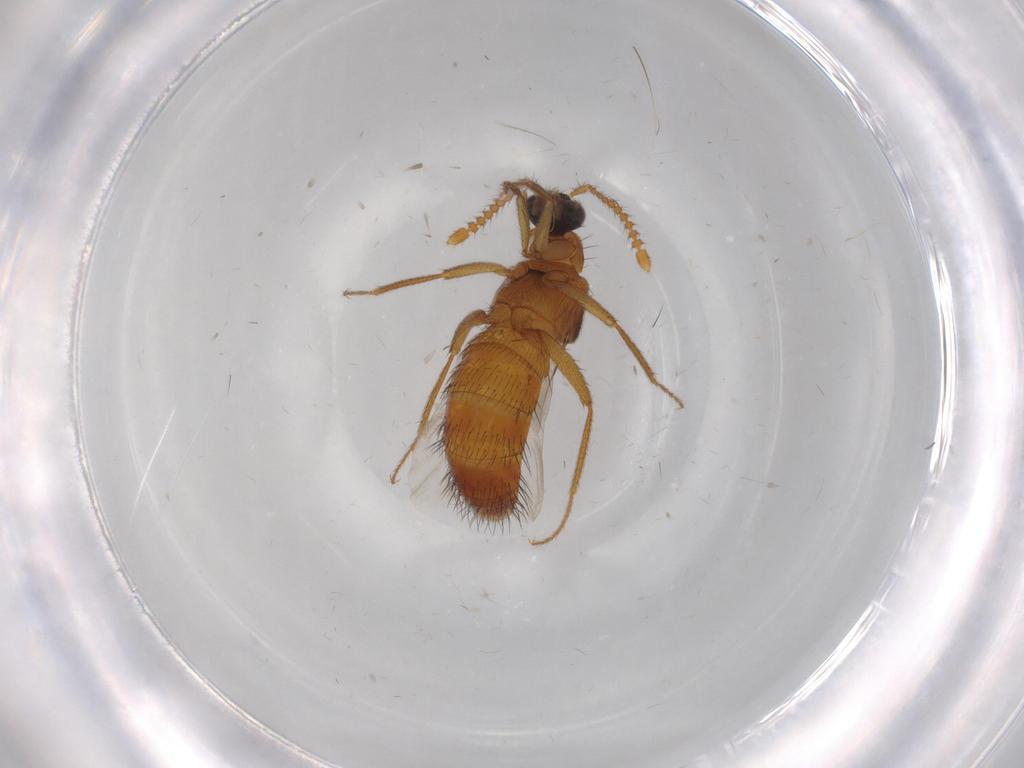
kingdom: Animalia
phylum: Arthropoda
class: Insecta
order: Coleoptera
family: Staphylinidae
